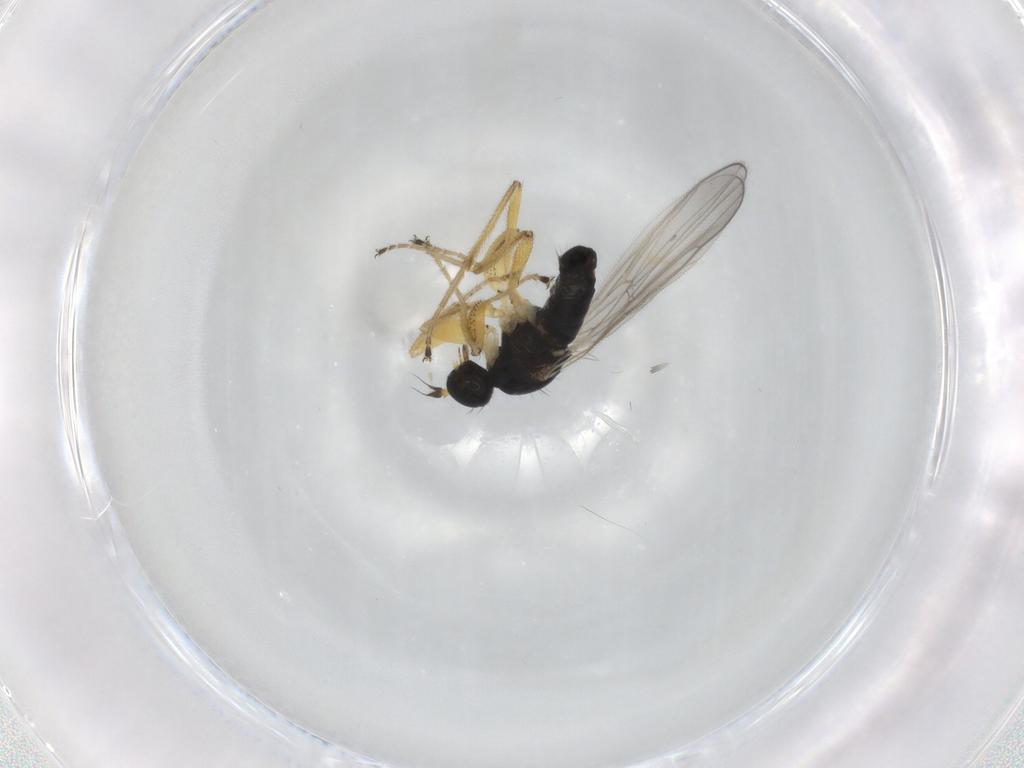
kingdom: Animalia
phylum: Arthropoda
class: Insecta
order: Diptera
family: Hybotidae
